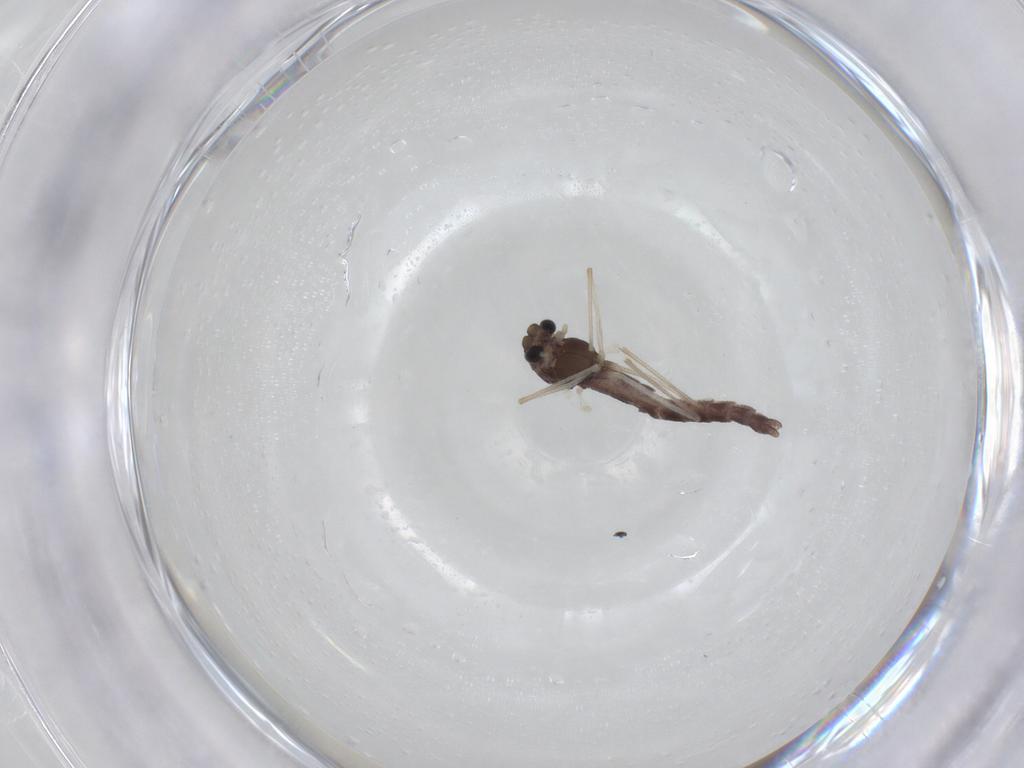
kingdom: Animalia
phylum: Arthropoda
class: Insecta
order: Diptera
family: Chironomidae
